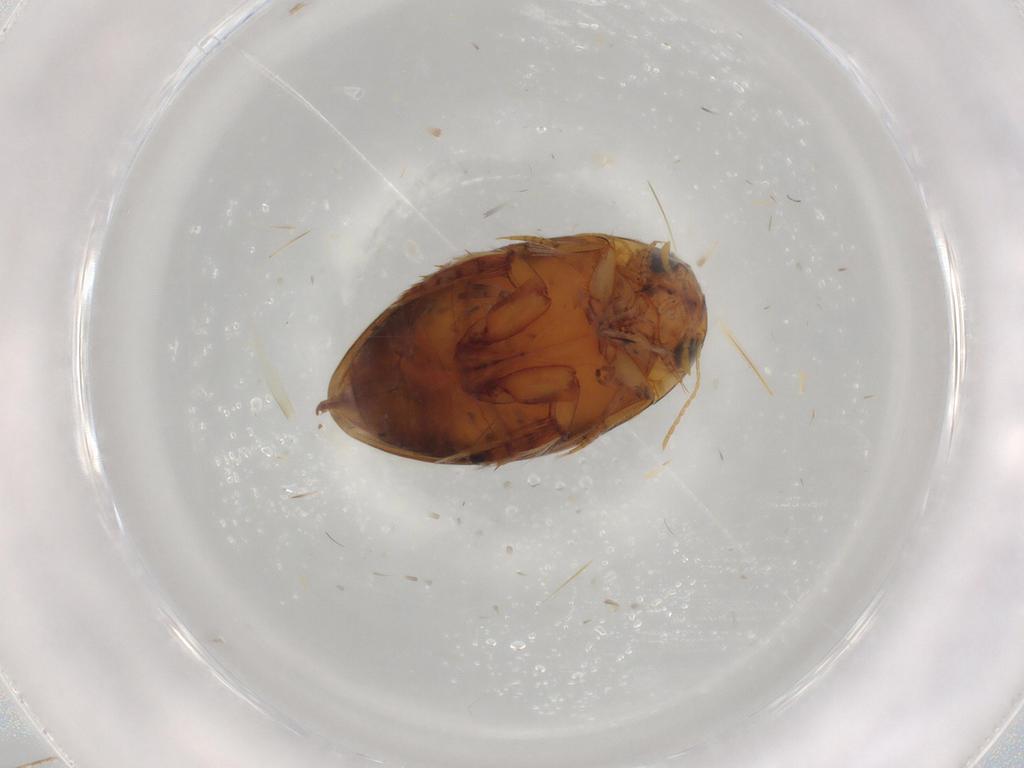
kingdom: Animalia
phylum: Arthropoda
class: Insecta
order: Coleoptera
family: Dytiscidae
